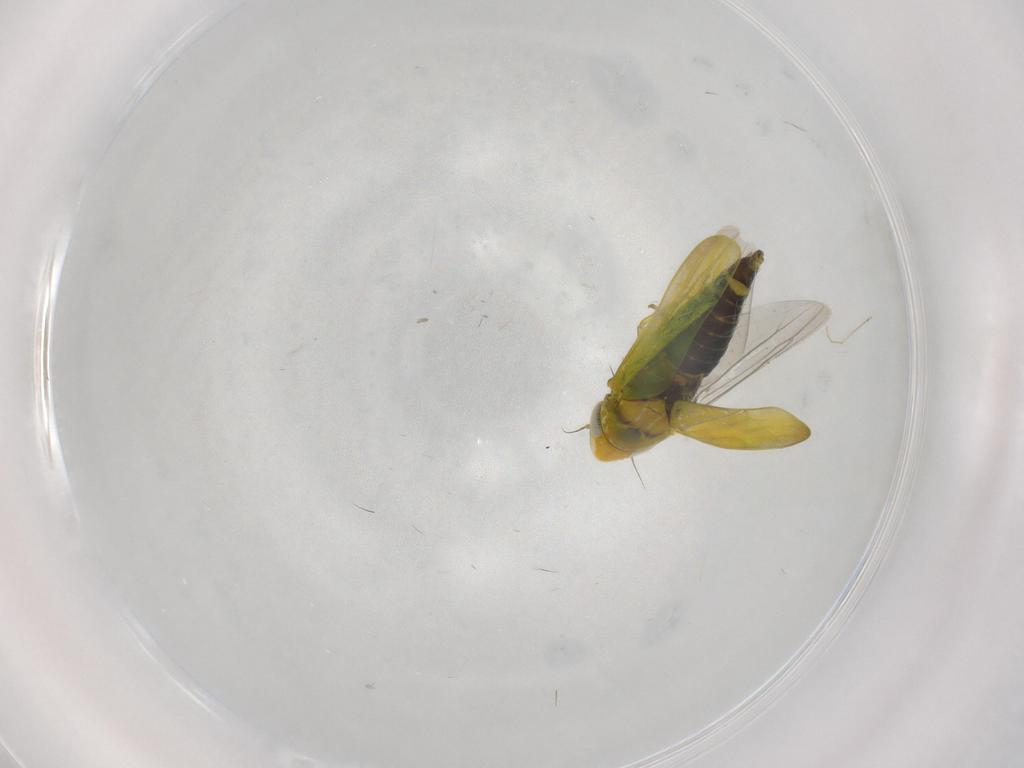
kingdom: Animalia
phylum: Arthropoda
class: Insecta
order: Hemiptera
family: Cicadellidae
